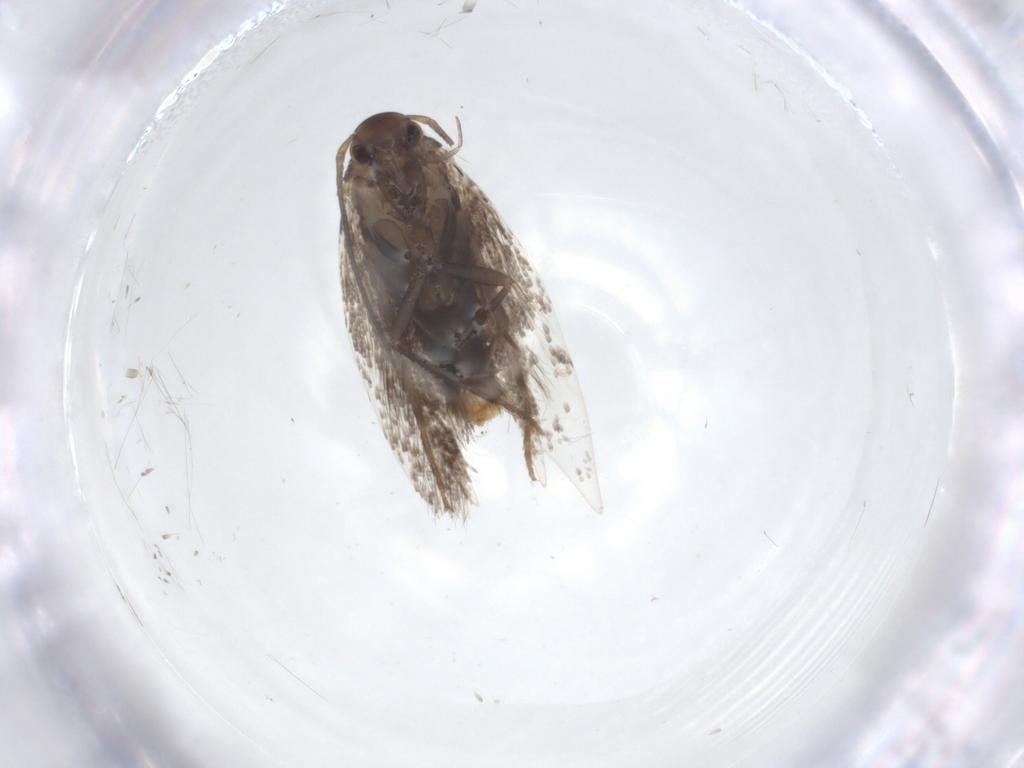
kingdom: Animalia
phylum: Arthropoda
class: Insecta
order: Lepidoptera
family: Elachistidae
